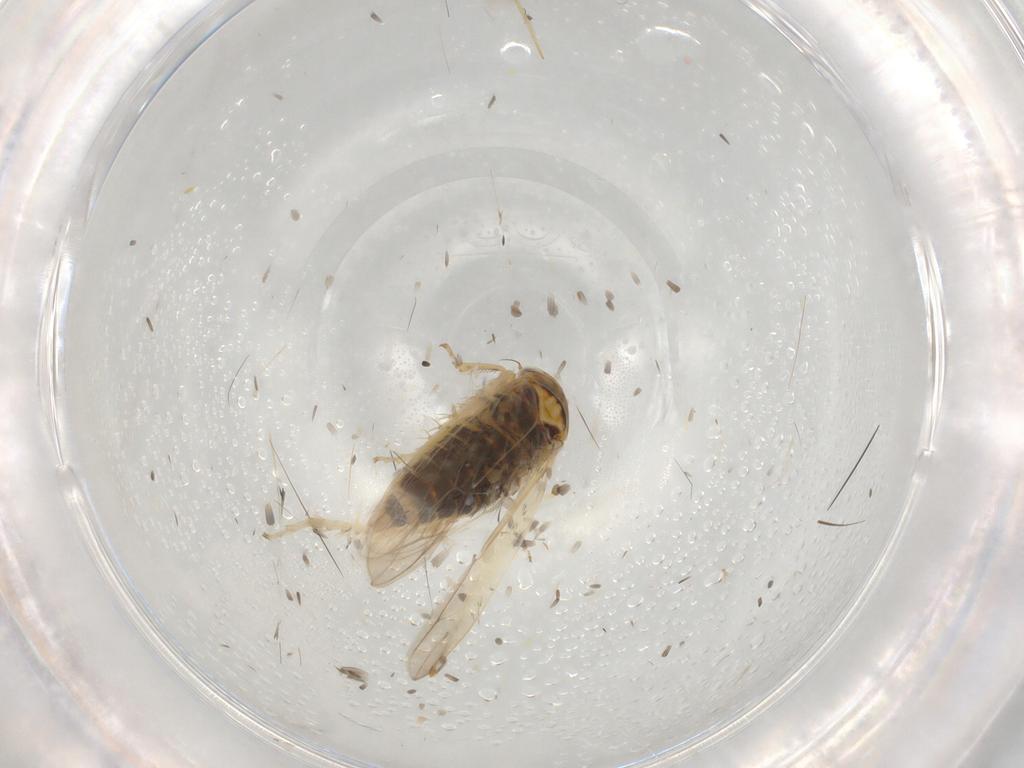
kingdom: Animalia
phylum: Arthropoda
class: Insecta
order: Hemiptera
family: Cicadellidae
